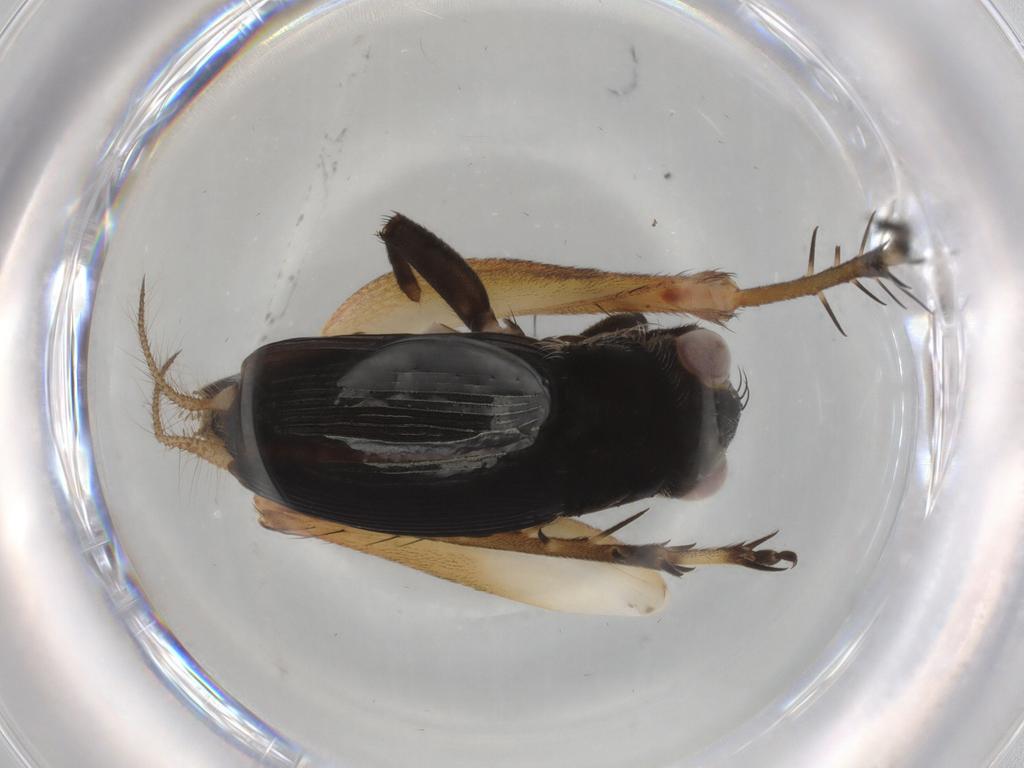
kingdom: Animalia
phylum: Arthropoda
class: Insecta
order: Orthoptera
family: Trigonidiidae
